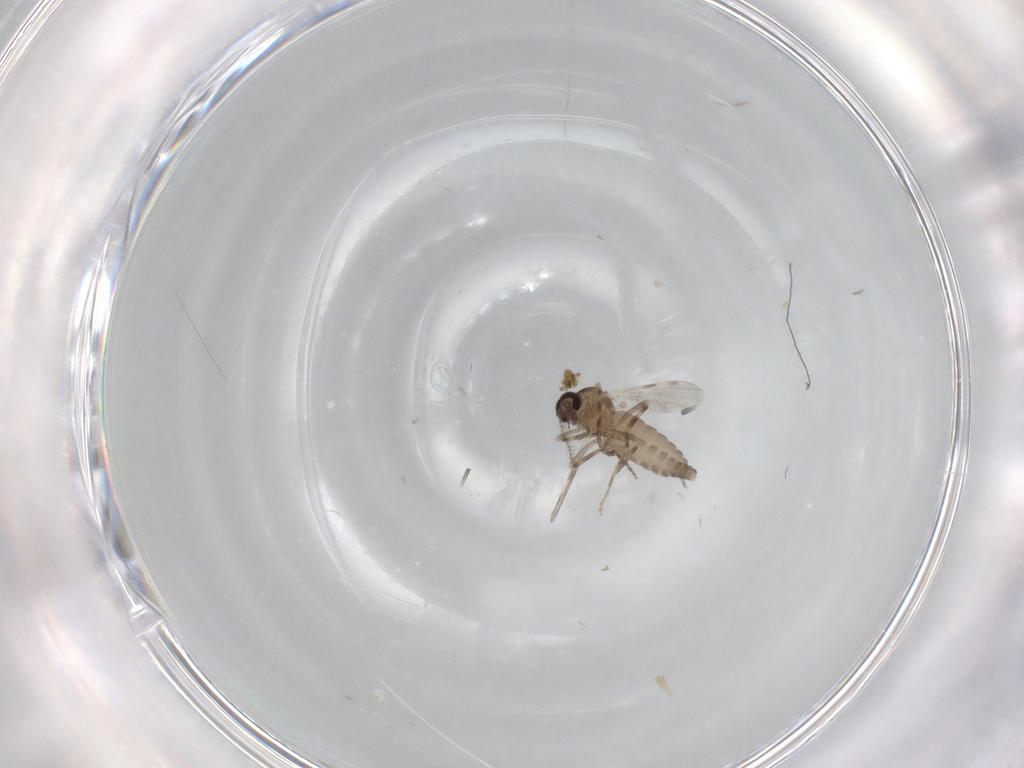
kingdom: Animalia
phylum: Arthropoda
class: Insecta
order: Diptera
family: Ceratopogonidae
